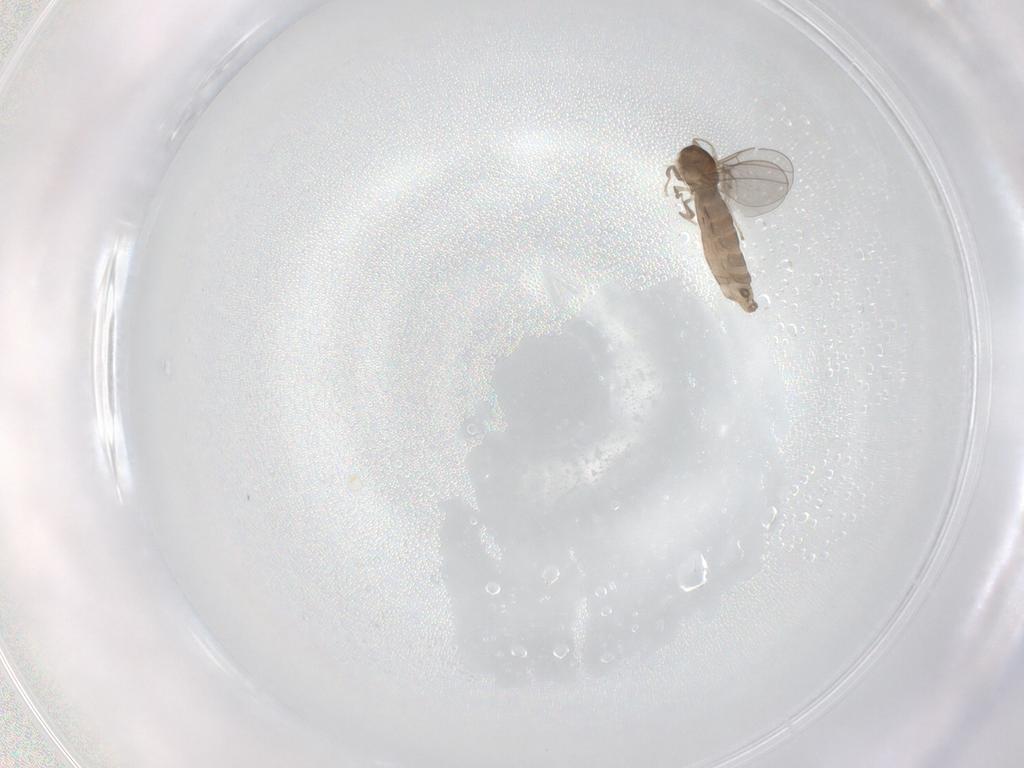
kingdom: Animalia
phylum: Arthropoda
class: Insecta
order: Diptera
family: Cecidomyiidae
